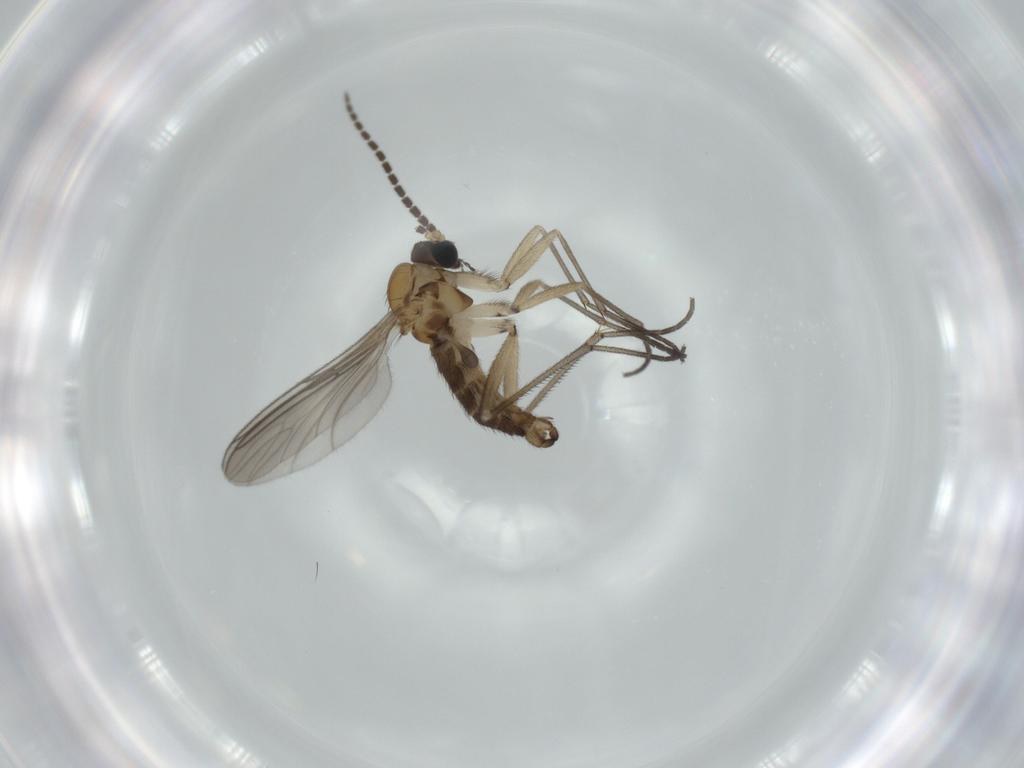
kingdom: Animalia
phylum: Arthropoda
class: Insecta
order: Diptera
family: Sciaridae
